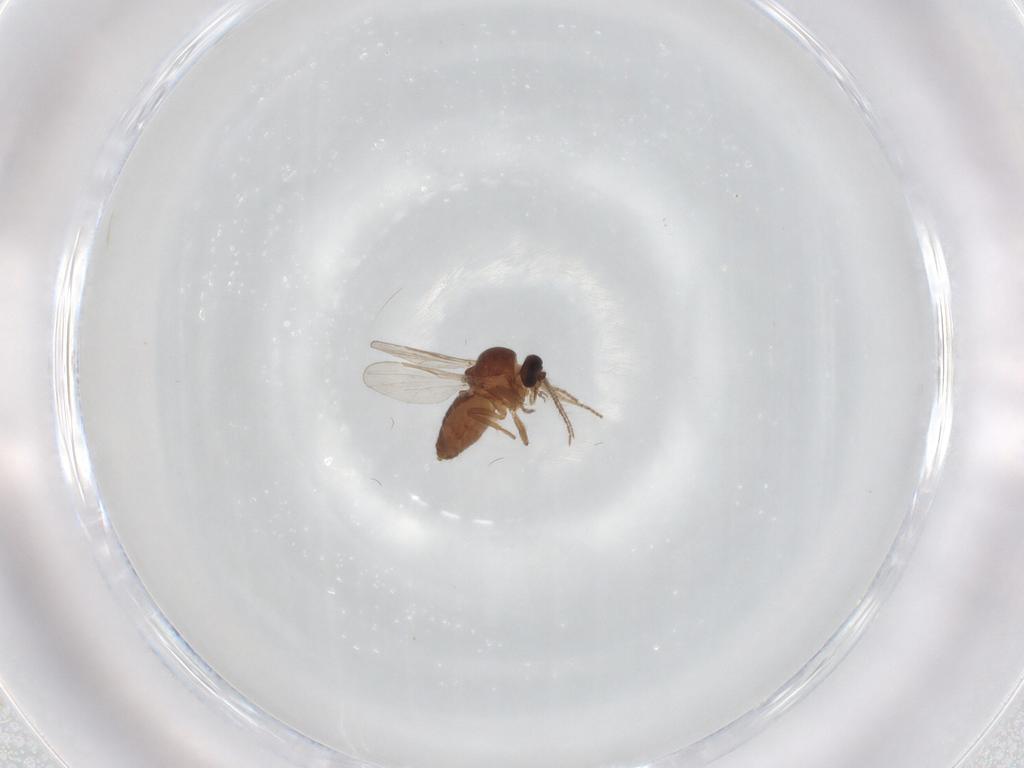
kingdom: Animalia
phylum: Arthropoda
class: Insecta
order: Diptera
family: Ceratopogonidae
